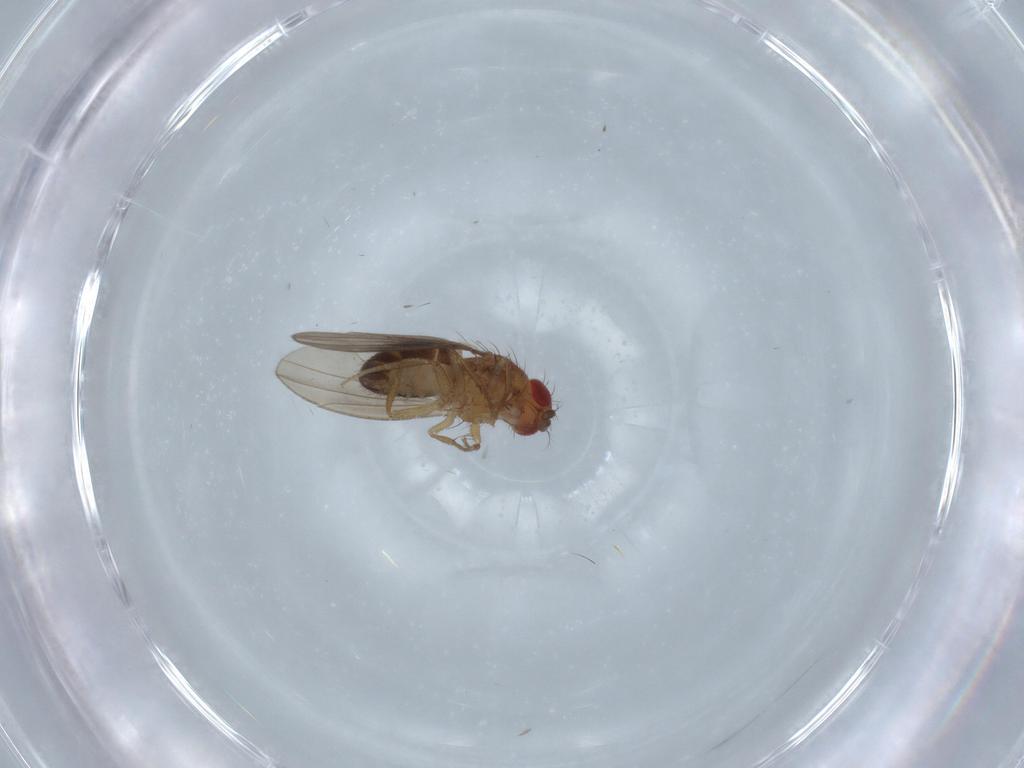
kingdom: Animalia
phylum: Arthropoda
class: Insecta
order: Diptera
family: Drosophilidae
